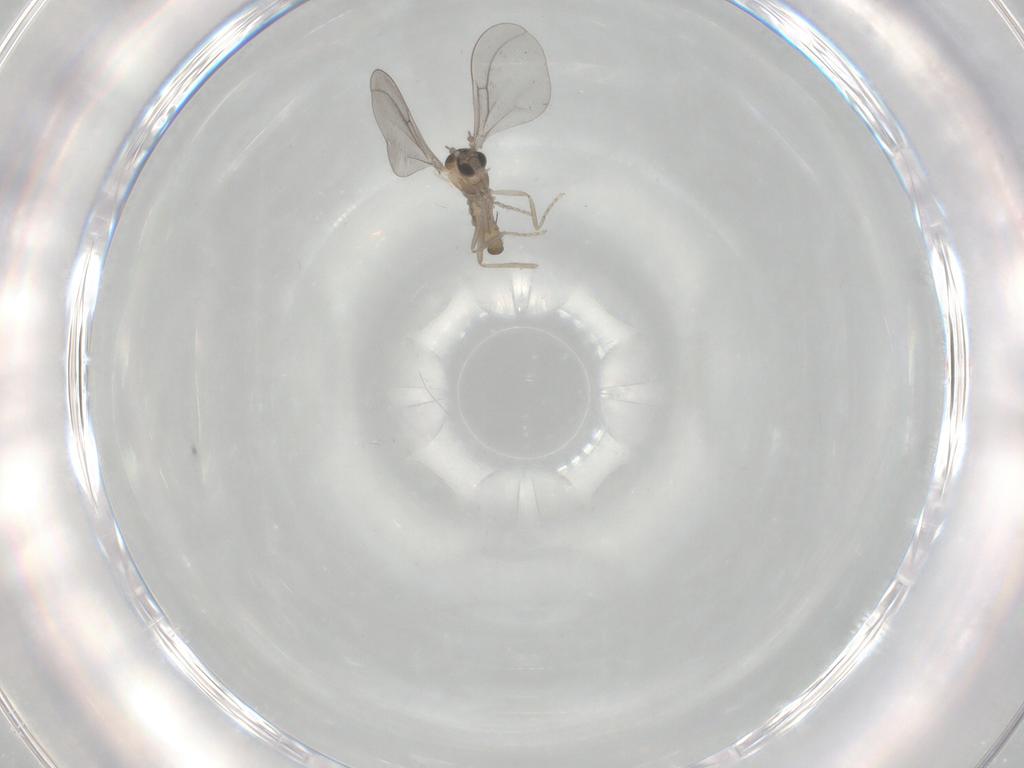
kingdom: Animalia
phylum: Arthropoda
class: Insecta
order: Diptera
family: Cecidomyiidae
